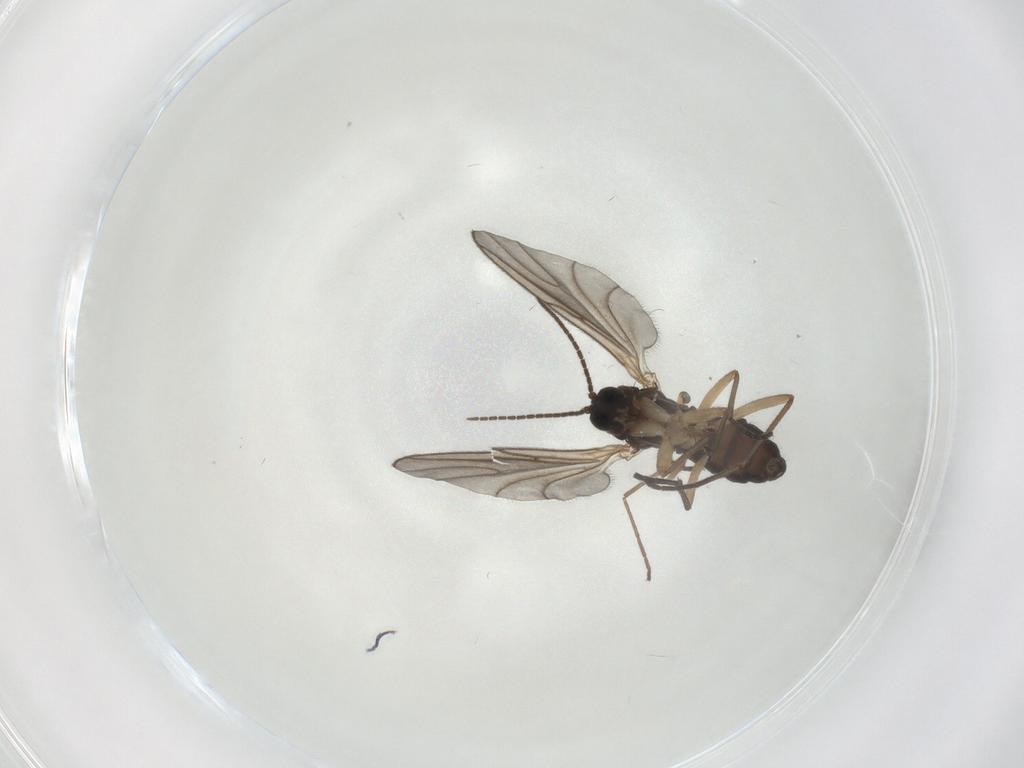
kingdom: Animalia
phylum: Arthropoda
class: Insecta
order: Diptera
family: Sciaridae
